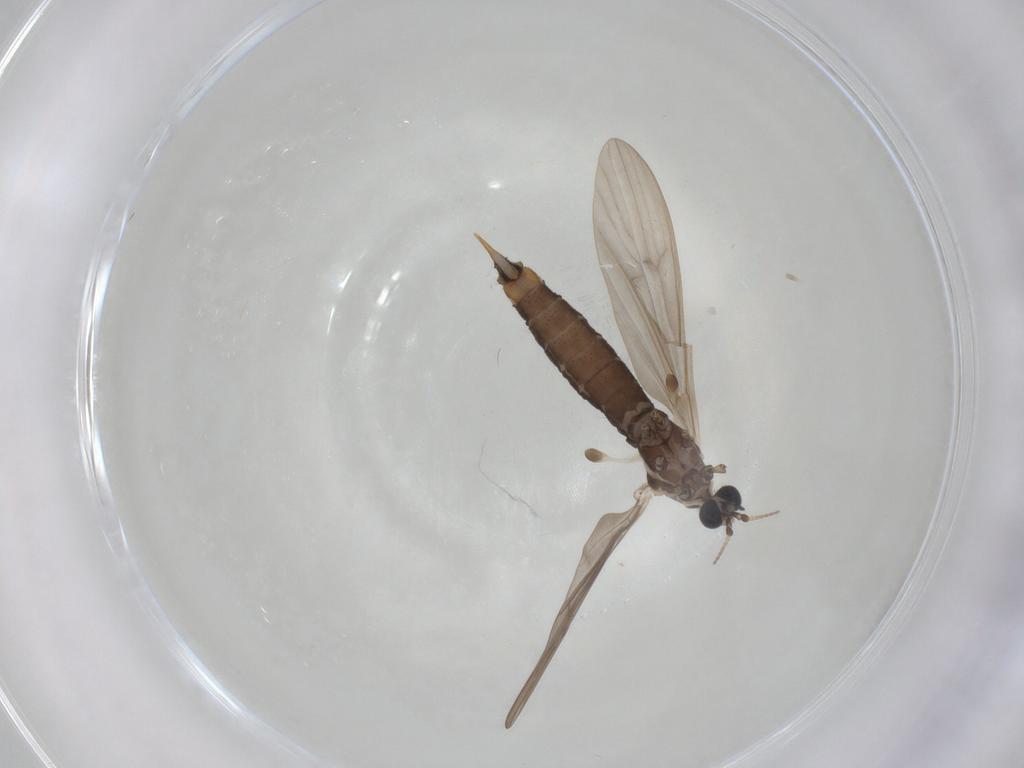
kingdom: Animalia
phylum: Arthropoda
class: Insecta
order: Diptera
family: Limoniidae
